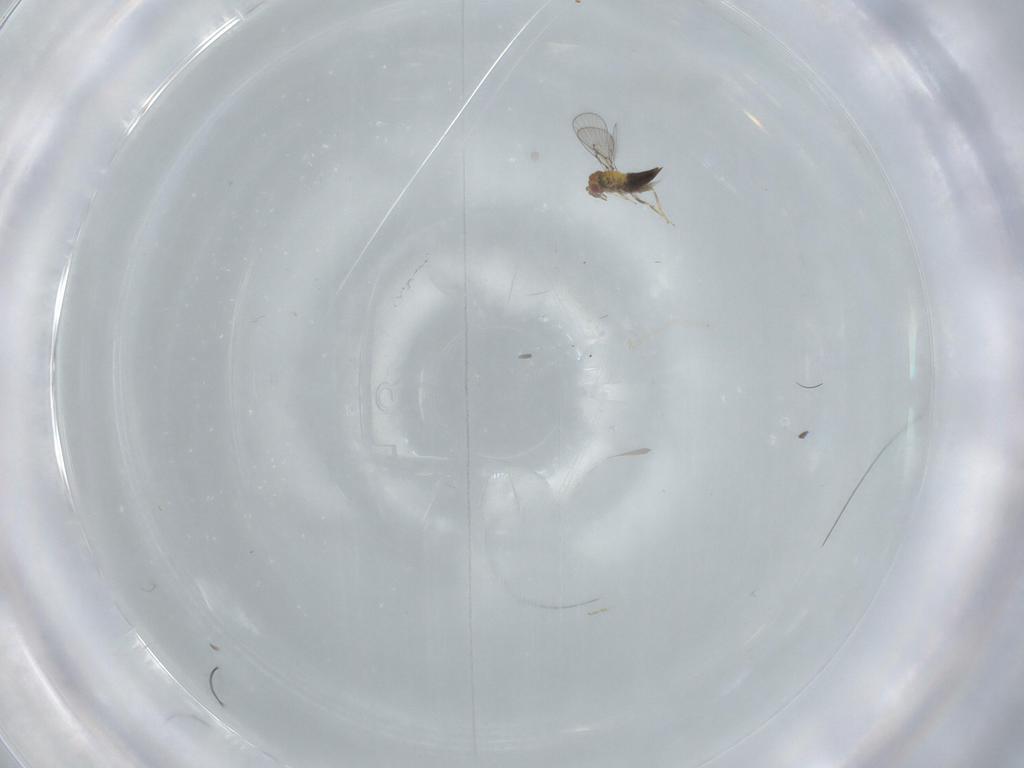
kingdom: Animalia
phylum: Arthropoda
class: Insecta
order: Hymenoptera
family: Trichogrammatidae
